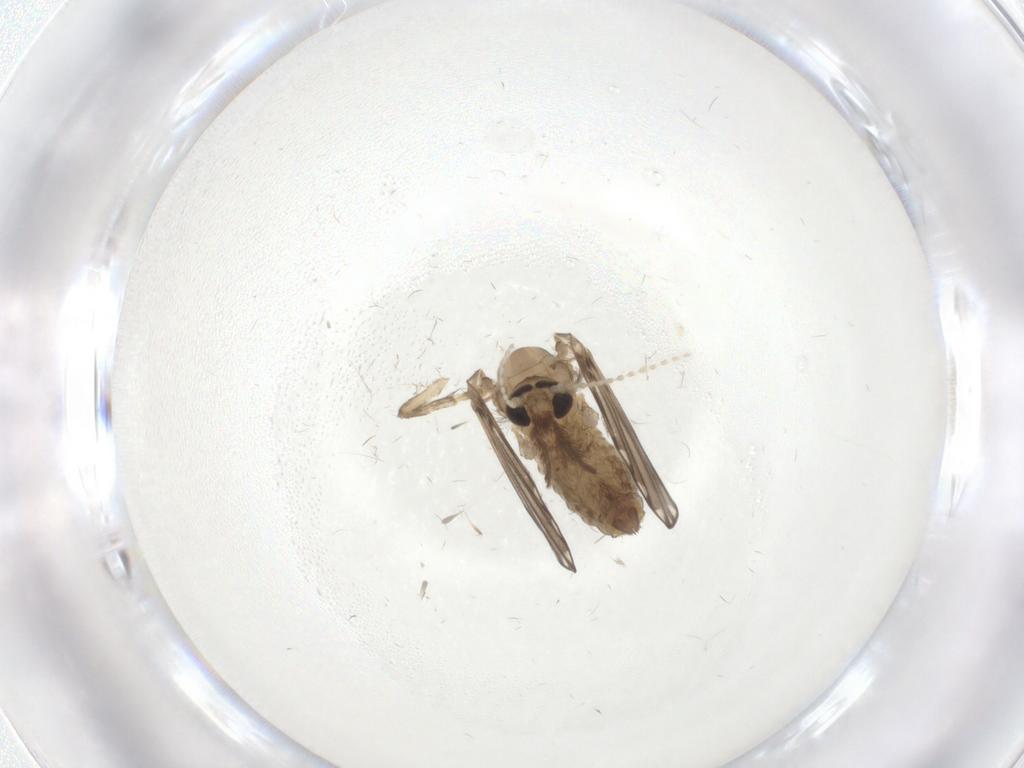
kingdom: Animalia
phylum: Arthropoda
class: Insecta
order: Diptera
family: Psychodidae
